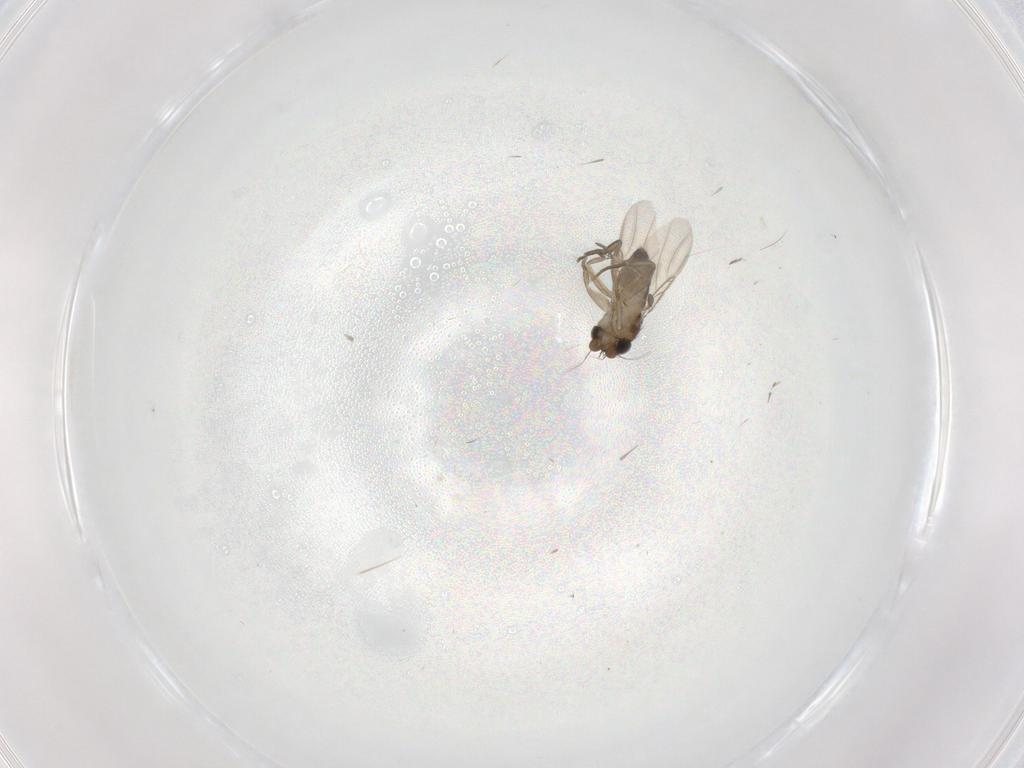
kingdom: Animalia
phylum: Arthropoda
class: Insecta
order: Diptera
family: Phoridae
